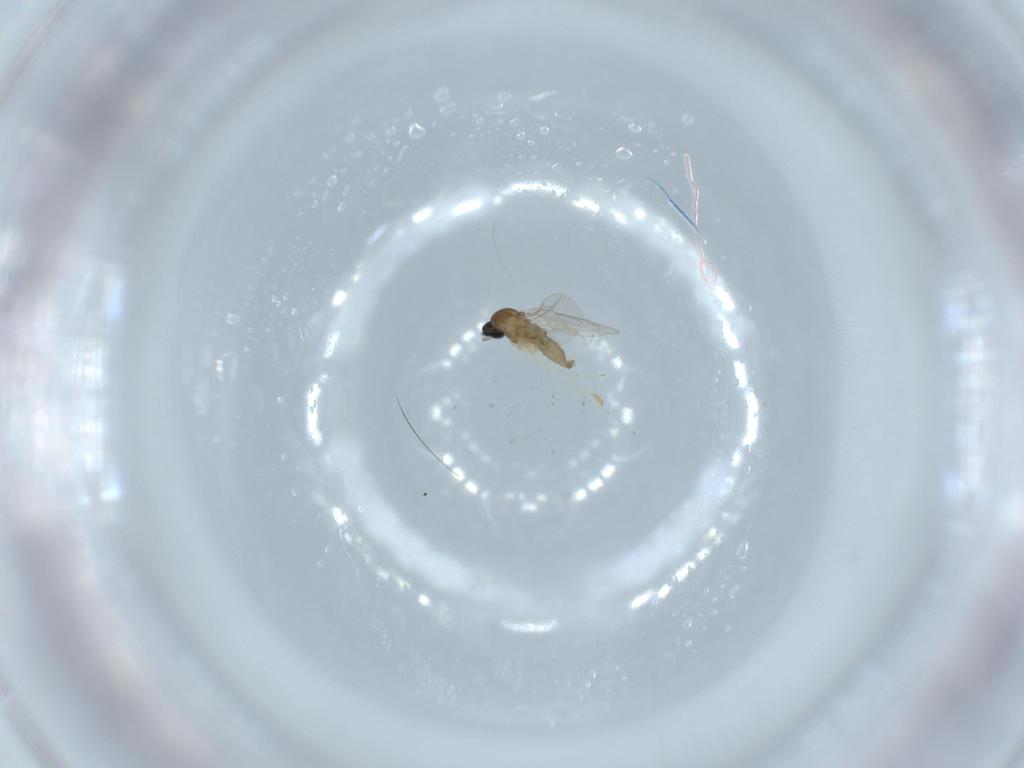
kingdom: Animalia
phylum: Arthropoda
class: Insecta
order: Diptera
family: Cecidomyiidae
